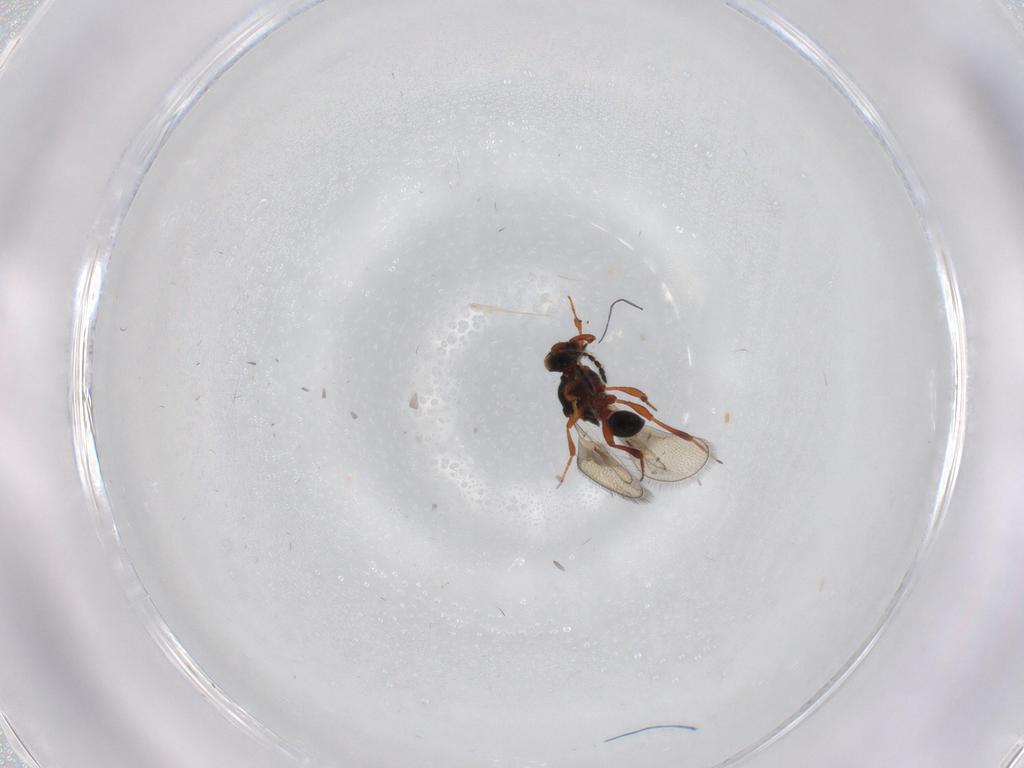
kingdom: Animalia
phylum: Arthropoda
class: Insecta
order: Hymenoptera
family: Platygastridae
